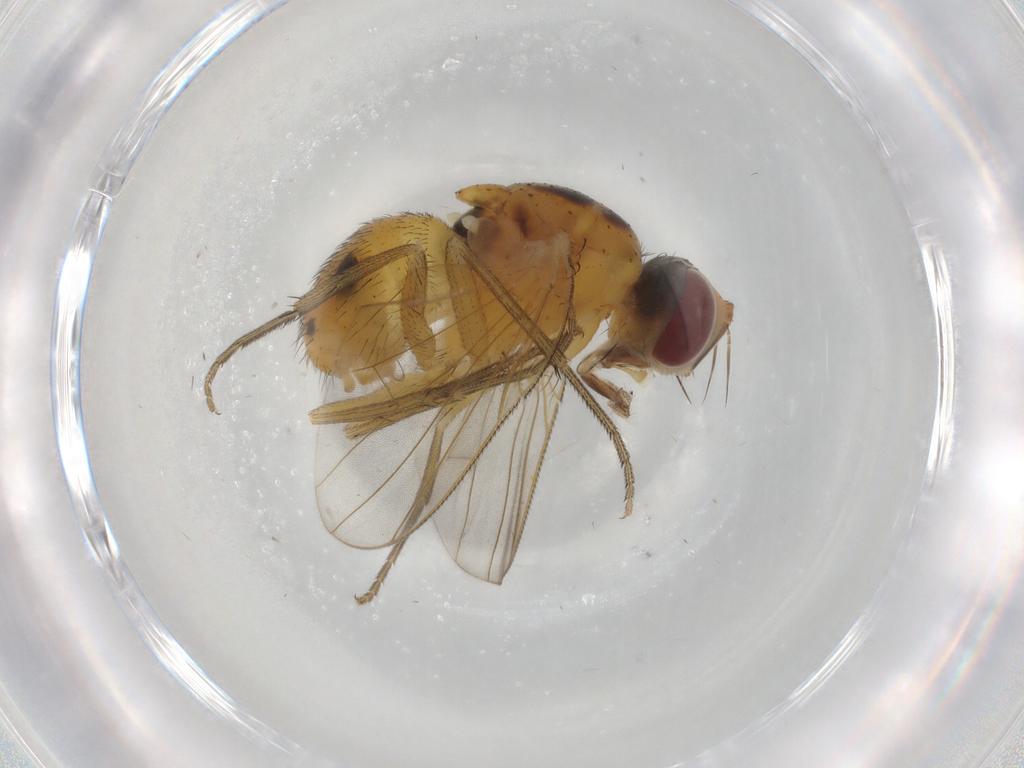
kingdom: Animalia
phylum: Arthropoda
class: Insecta
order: Diptera
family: Muscidae
